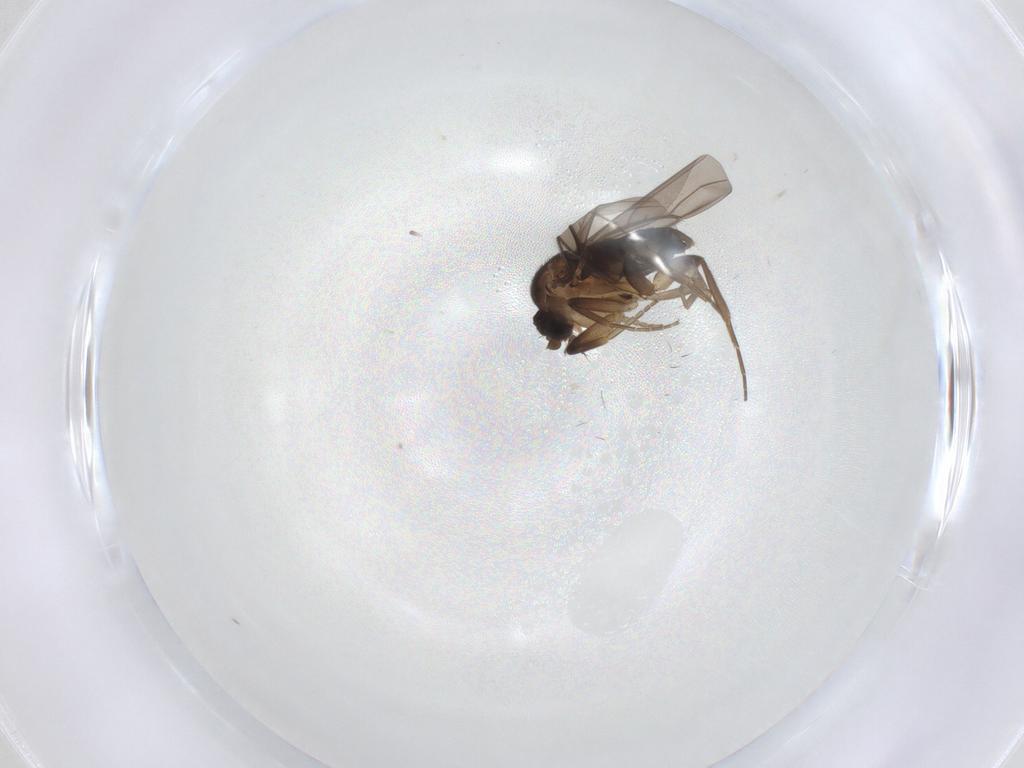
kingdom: Animalia
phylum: Arthropoda
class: Insecta
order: Diptera
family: Phoridae
